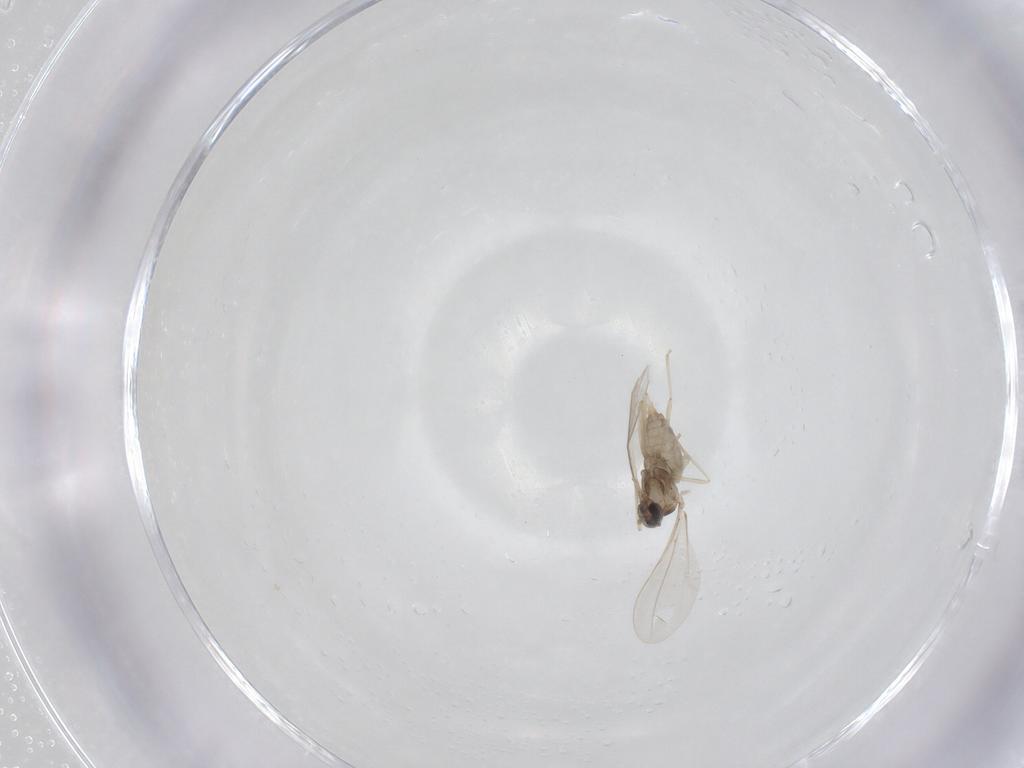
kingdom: Animalia
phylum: Arthropoda
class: Insecta
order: Diptera
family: Cecidomyiidae
